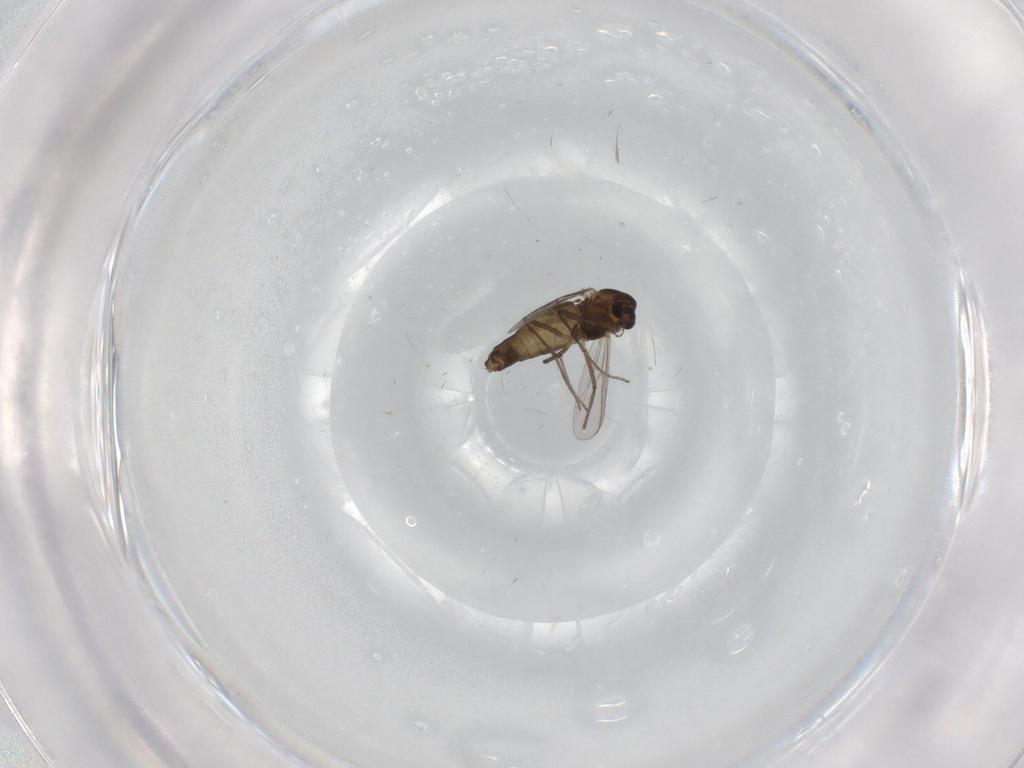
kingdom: Animalia
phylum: Arthropoda
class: Insecta
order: Diptera
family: Chironomidae
